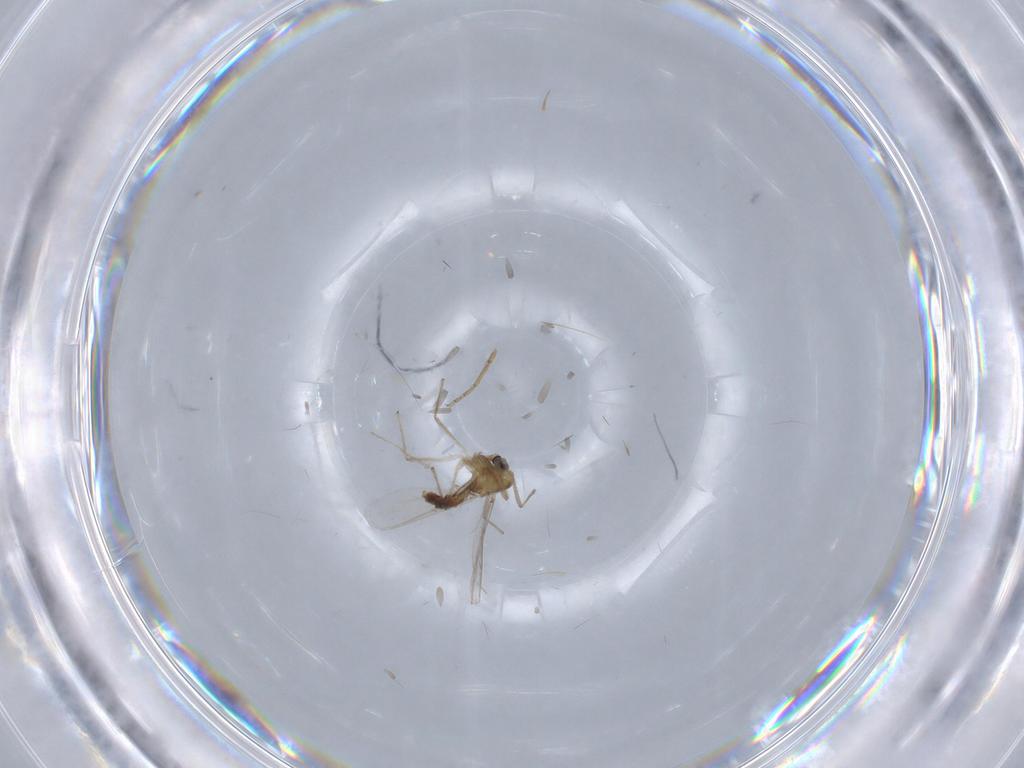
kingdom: Animalia
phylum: Arthropoda
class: Insecta
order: Diptera
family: Chironomidae
